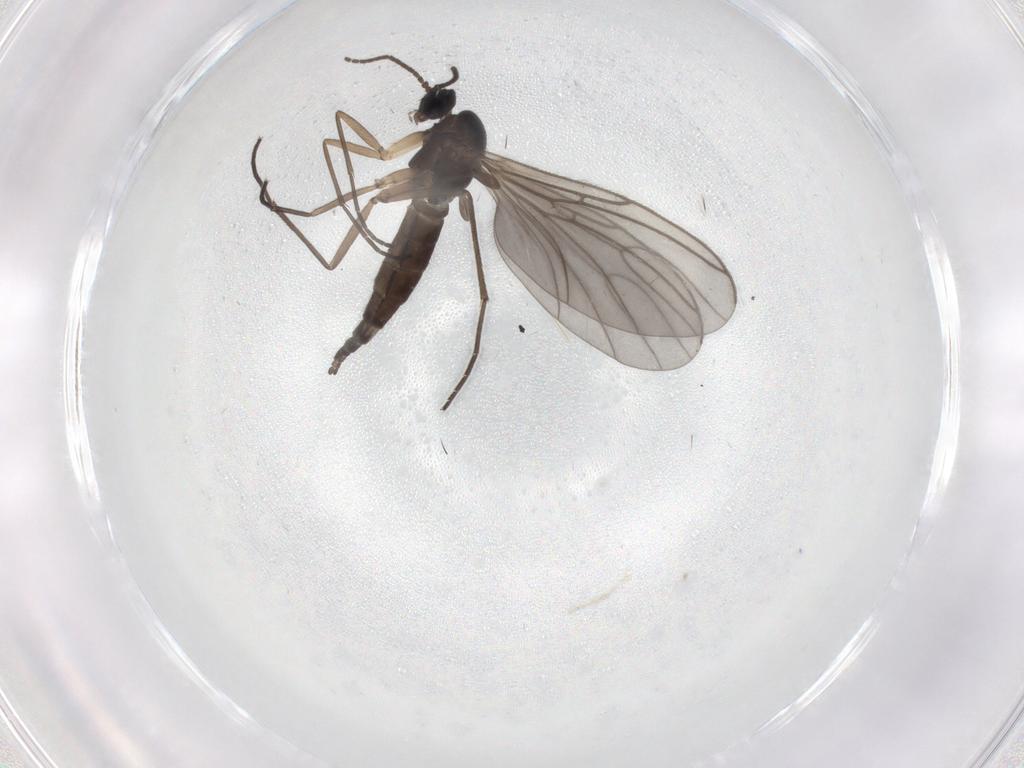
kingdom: Animalia
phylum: Arthropoda
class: Insecta
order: Diptera
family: Sciaridae
